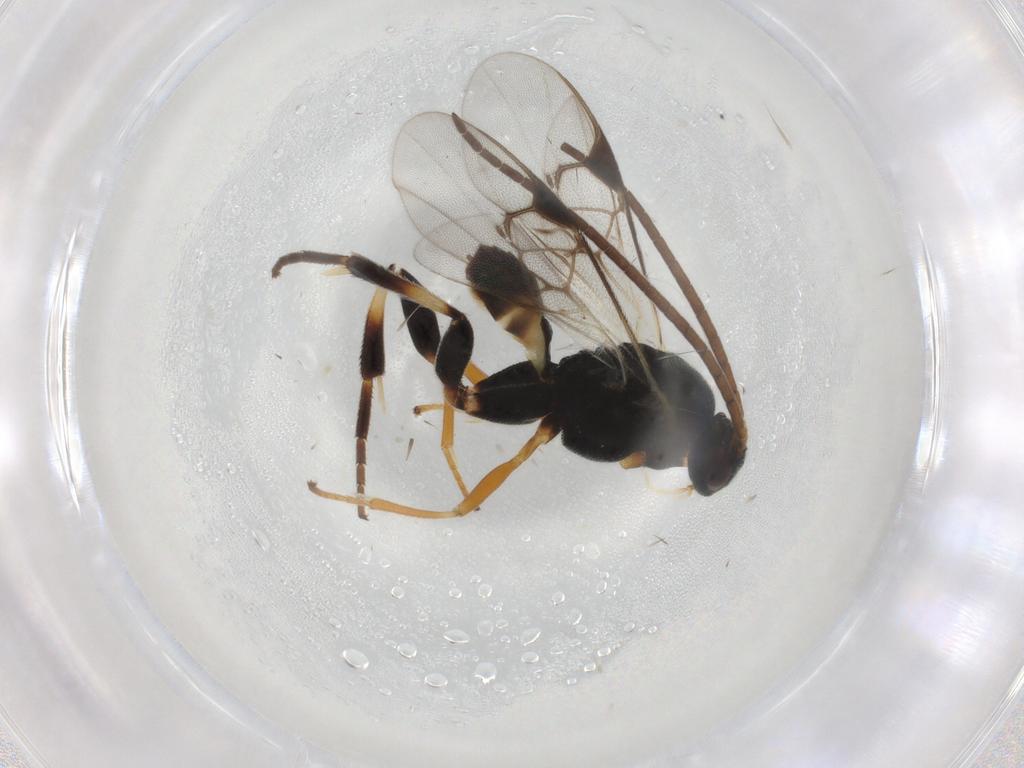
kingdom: Animalia
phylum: Arthropoda
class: Insecta
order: Hymenoptera
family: Braconidae
